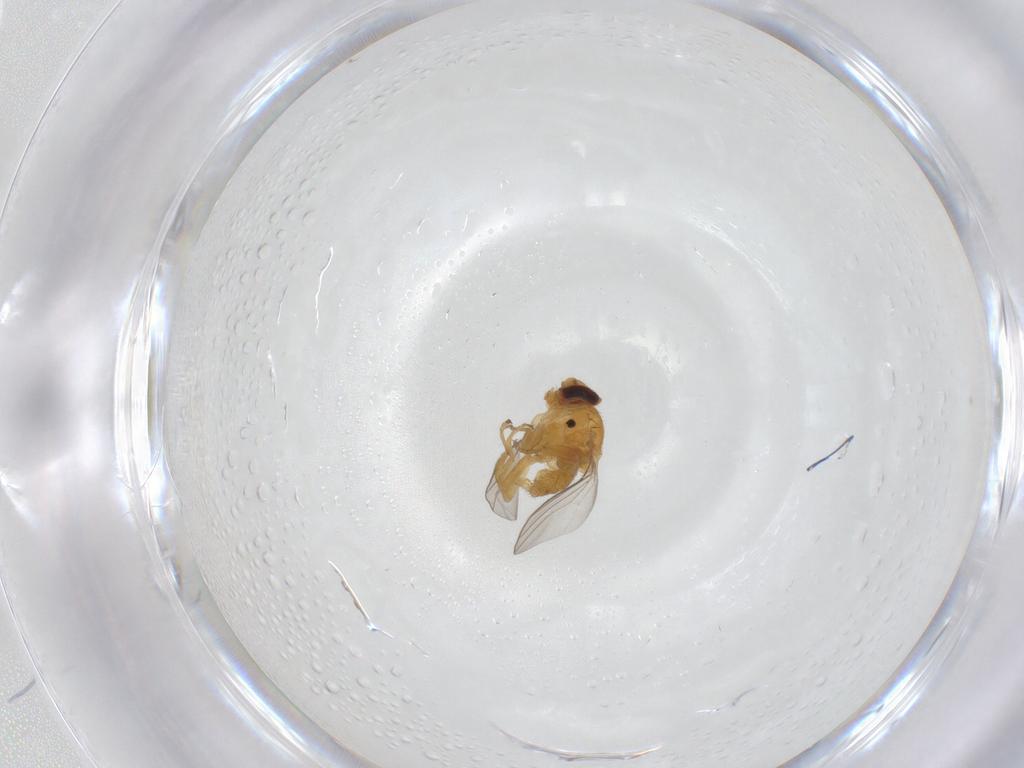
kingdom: Animalia
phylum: Arthropoda
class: Insecta
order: Diptera
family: Chloropidae
